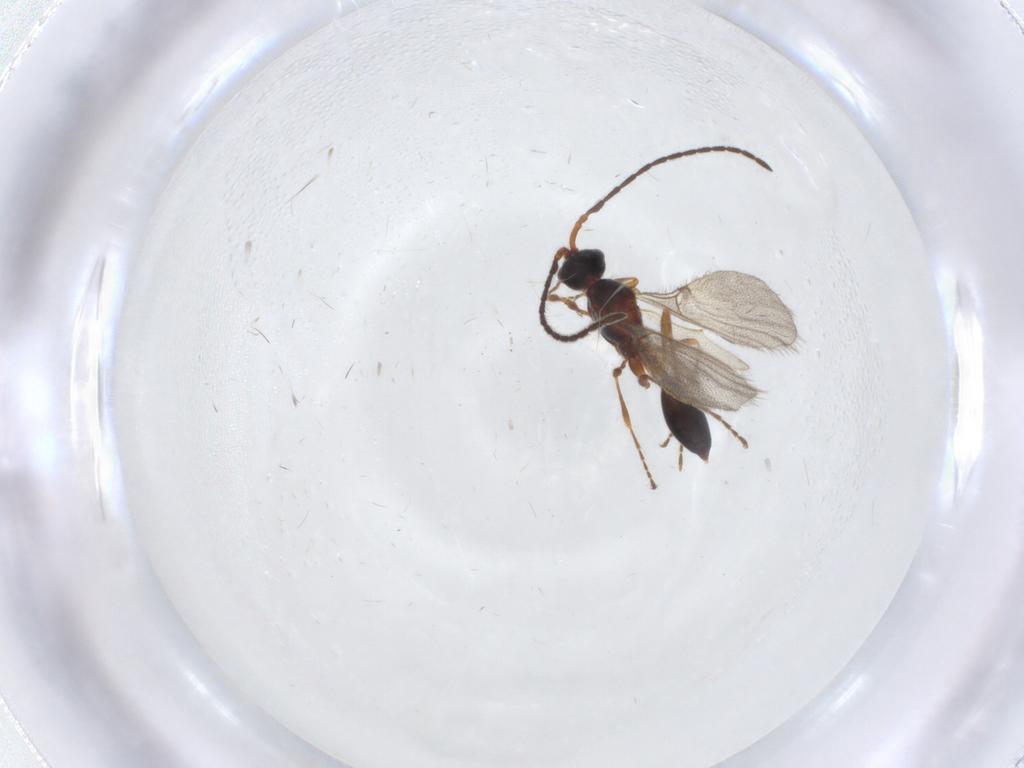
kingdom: Animalia
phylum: Arthropoda
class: Insecta
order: Hymenoptera
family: Diapriidae
